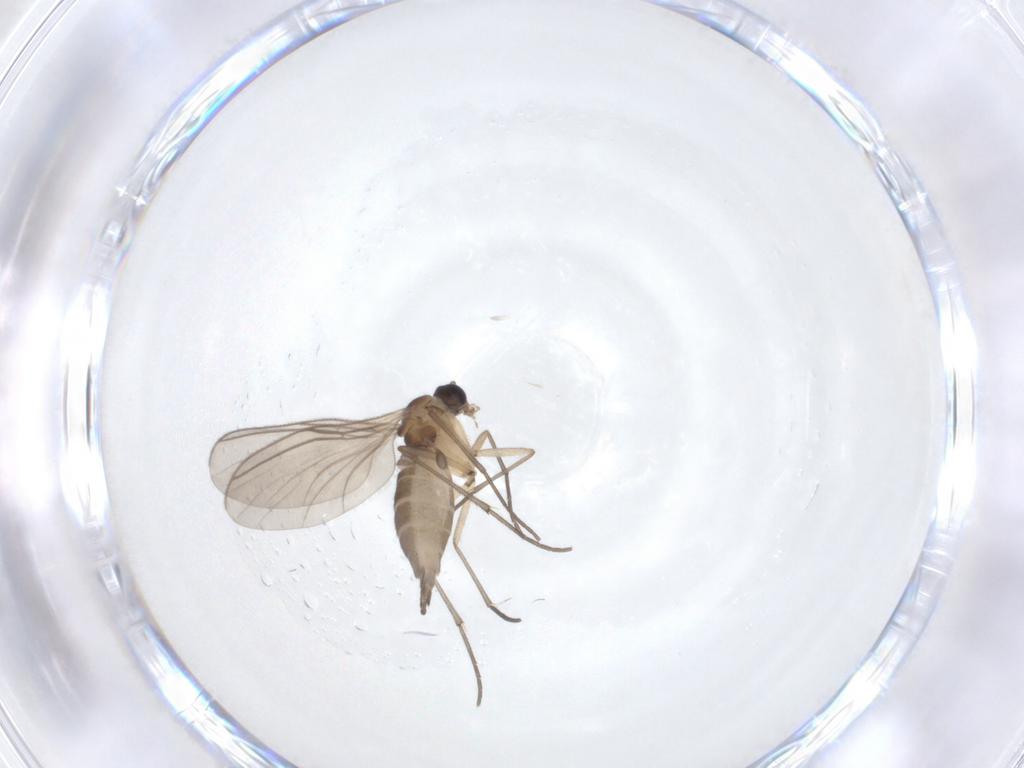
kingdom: Animalia
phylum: Arthropoda
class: Insecta
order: Diptera
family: Sciaridae
